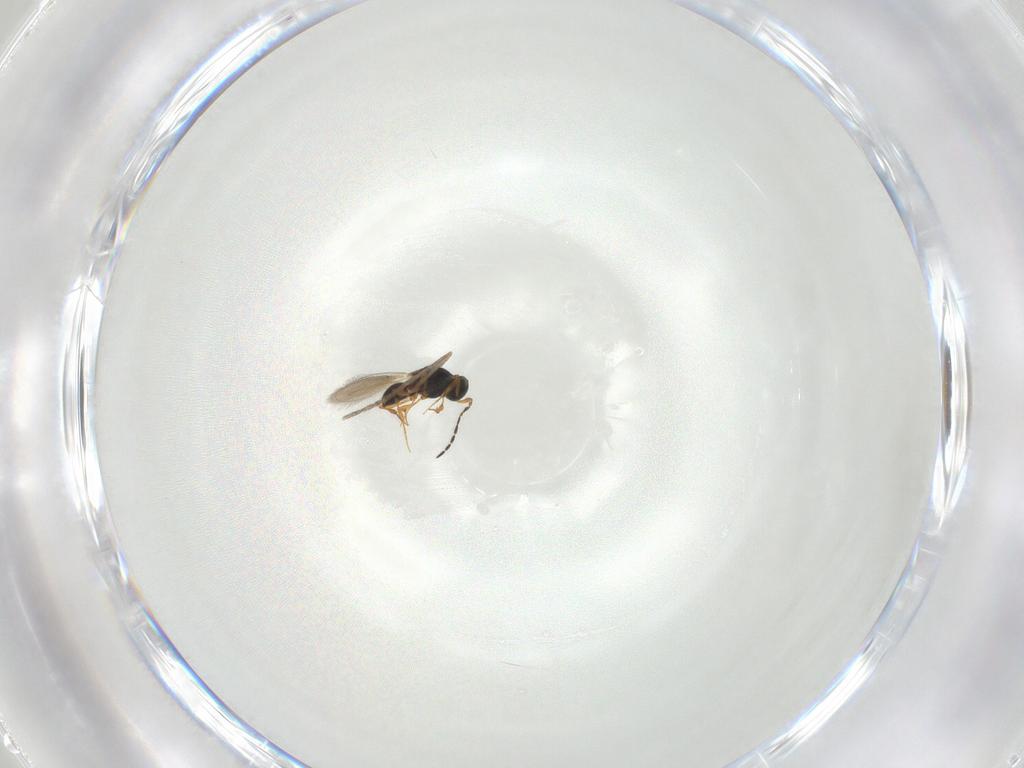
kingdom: Animalia
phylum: Arthropoda
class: Insecta
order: Diptera
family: Cecidomyiidae
